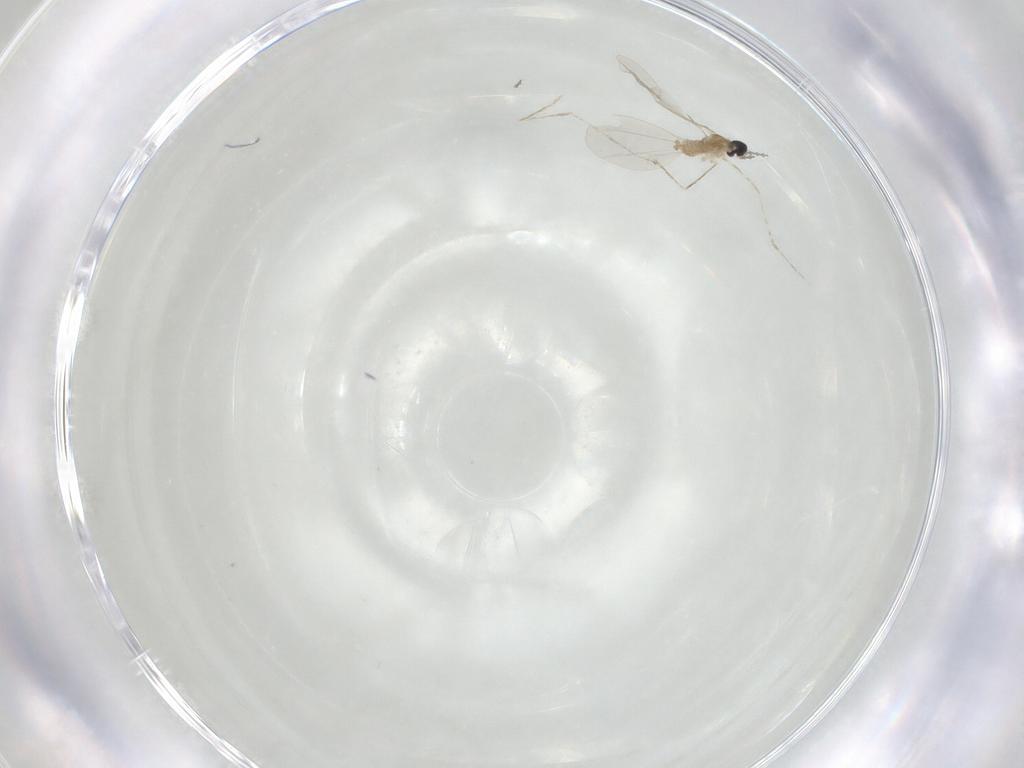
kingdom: Animalia
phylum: Arthropoda
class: Insecta
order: Diptera
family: Cecidomyiidae
